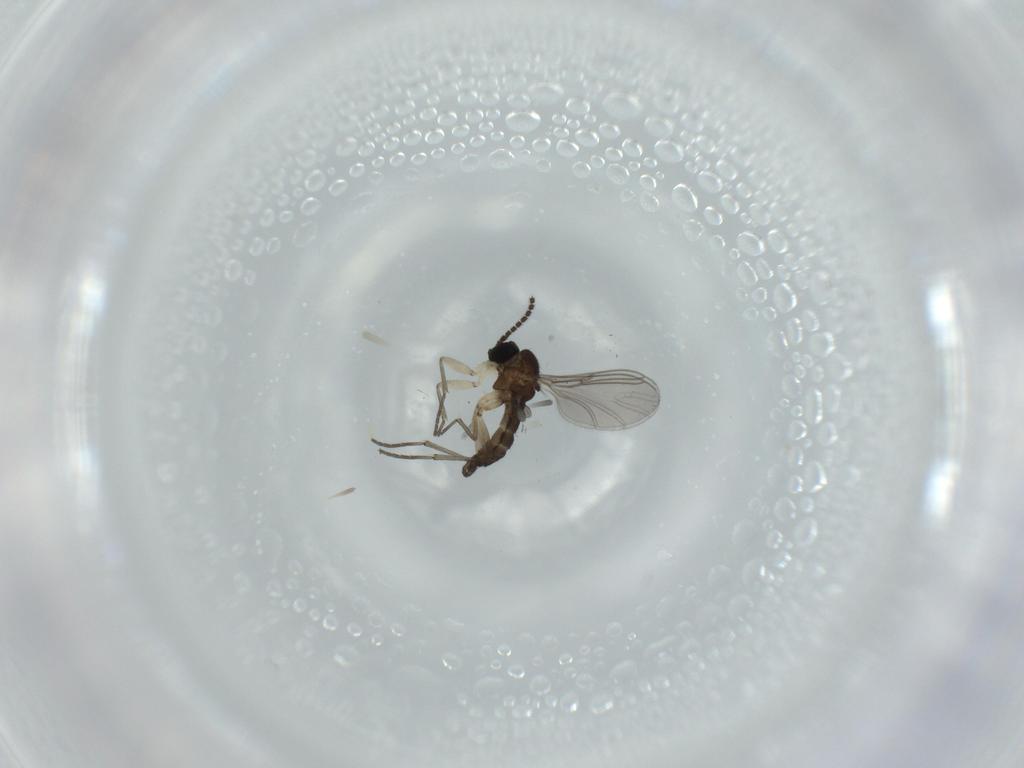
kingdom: Animalia
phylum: Arthropoda
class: Insecta
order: Diptera
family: Sciaridae
